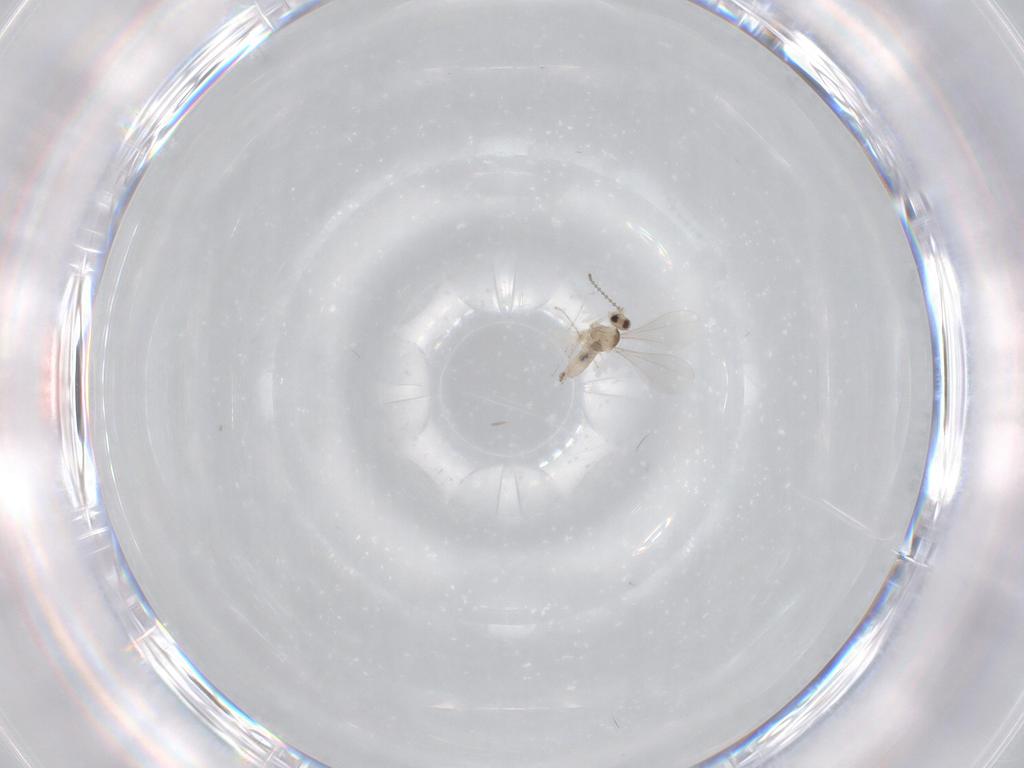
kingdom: Animalia
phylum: Arthropoda
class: Insecta
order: Diptera
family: Cecidomyiidae
